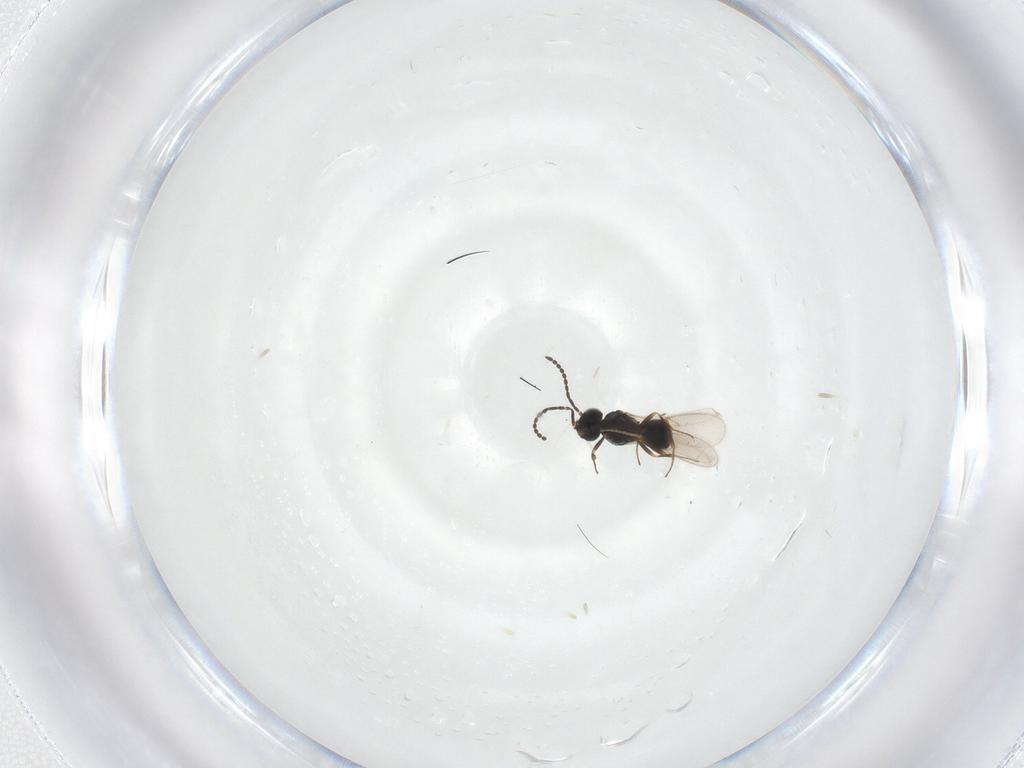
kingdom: Animalia
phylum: Arthropoda
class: Insecta
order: Hymenoptera
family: Scelionidae
